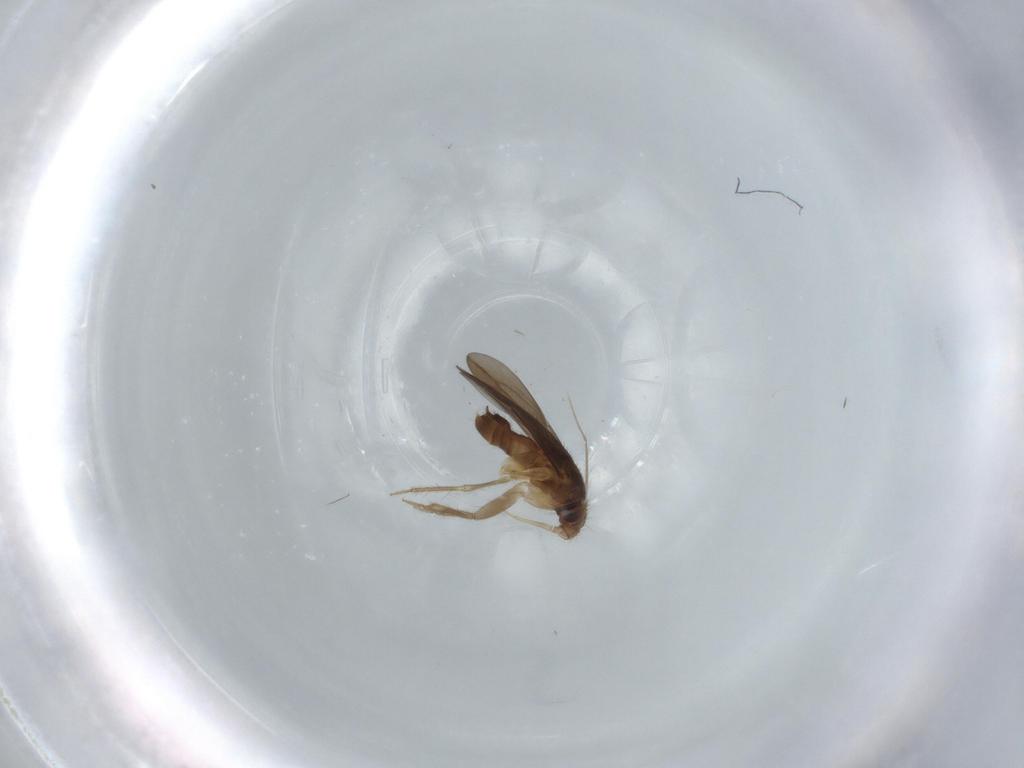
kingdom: Animalia
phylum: Arthropoda
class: Insecta
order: Hemiptera
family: Ceratocombidae
